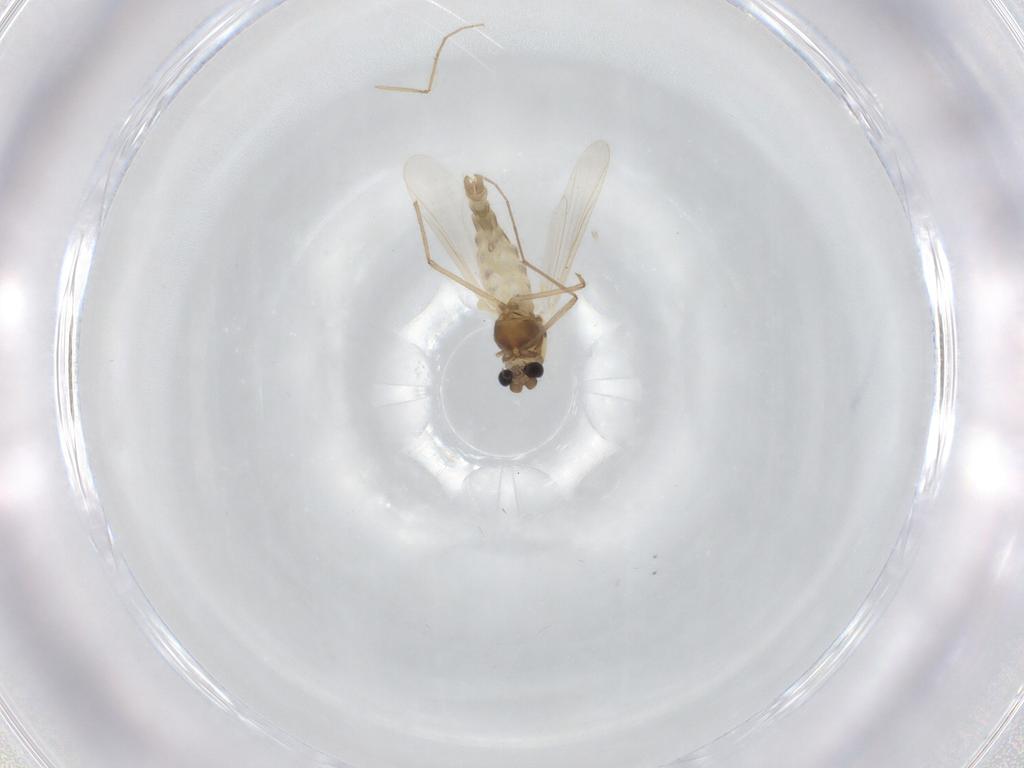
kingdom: Animalia
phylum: Arthropoda
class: Insecta
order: Diptera
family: Chironomidae
